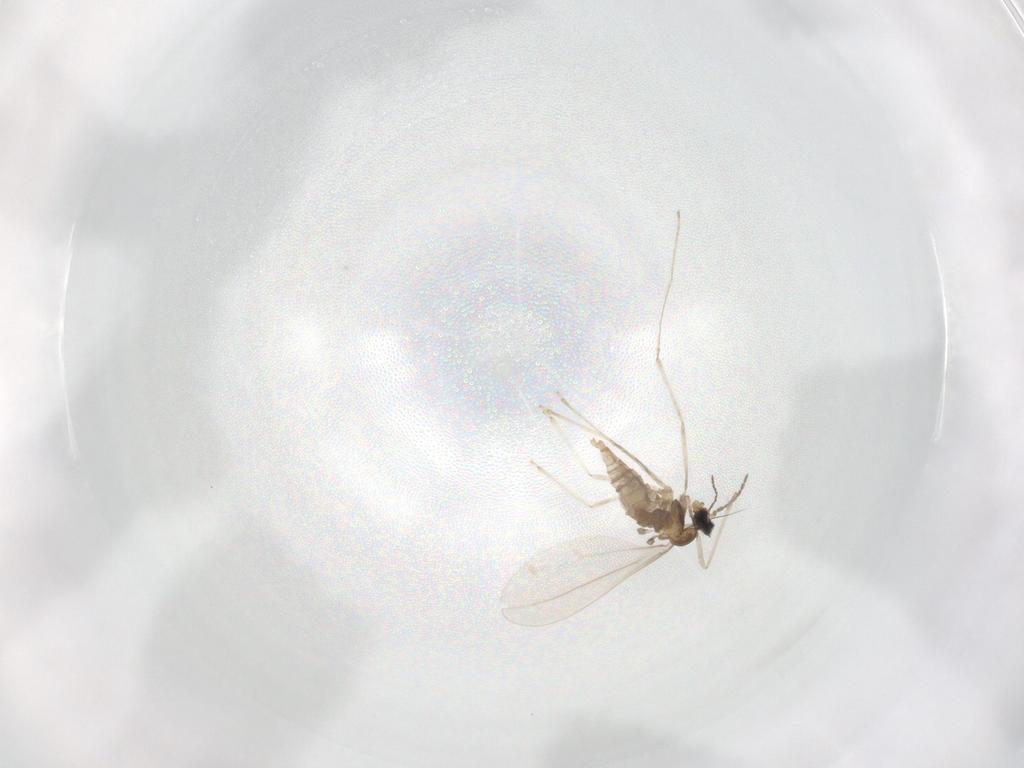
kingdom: Animalia
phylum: Arthropoda
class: Insecta
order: Diptera
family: Cecidomyiidae
